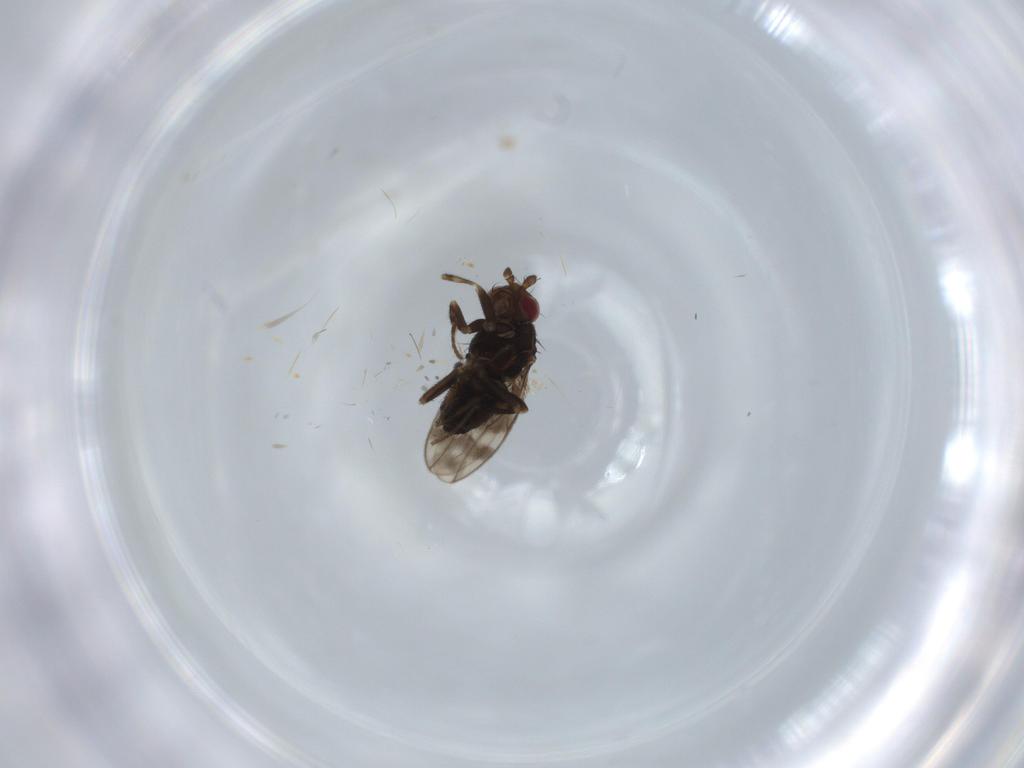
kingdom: Animalia
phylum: Arthropoda
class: Insecta
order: Diptera
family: Sphaeroceridae
